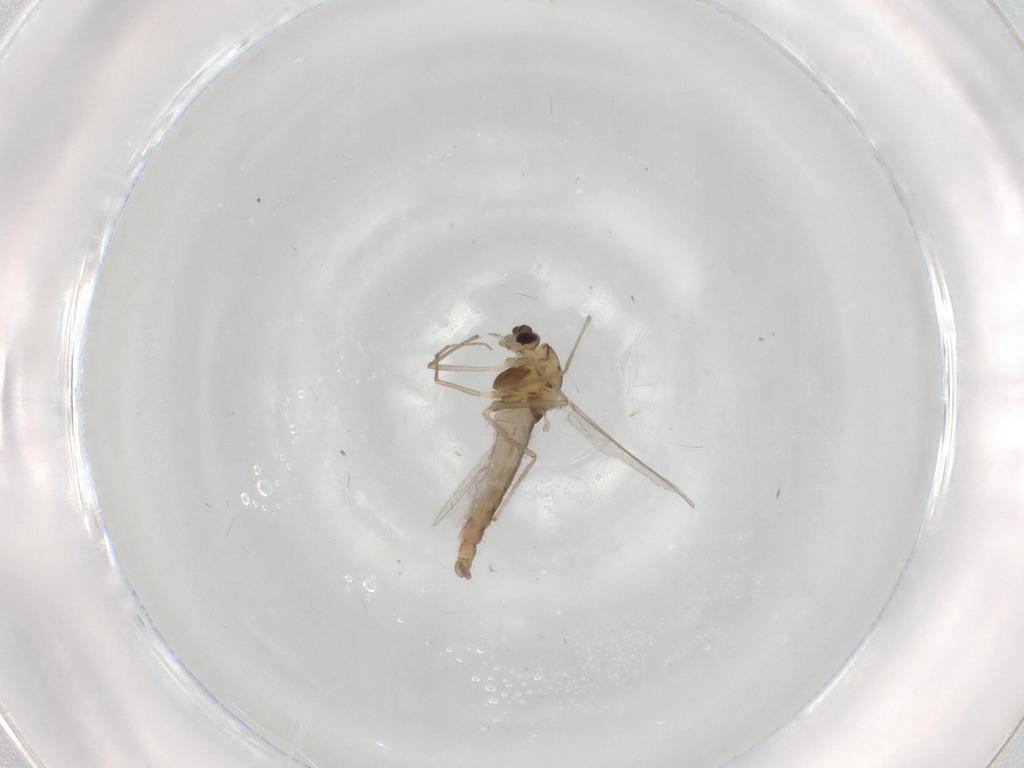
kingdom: Animalia
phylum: Arthropoda
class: Insecta
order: Diptera
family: Chironomidae
